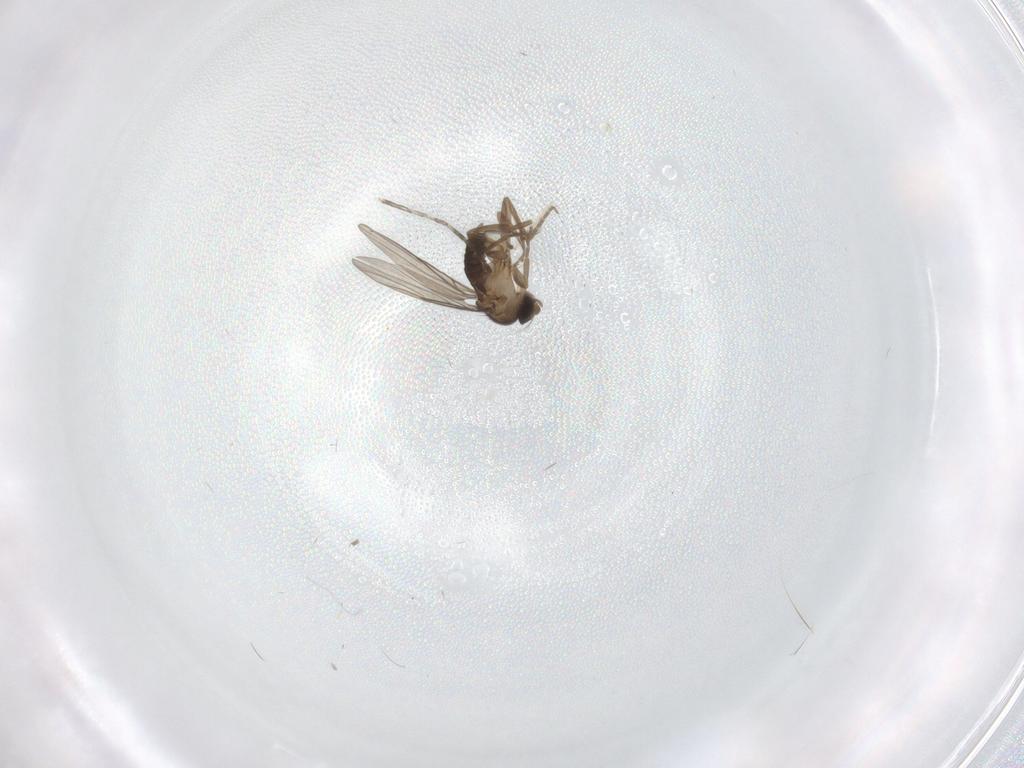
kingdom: Animalia
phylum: Arthropoda
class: Insecta
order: Diptera
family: Phoridae
